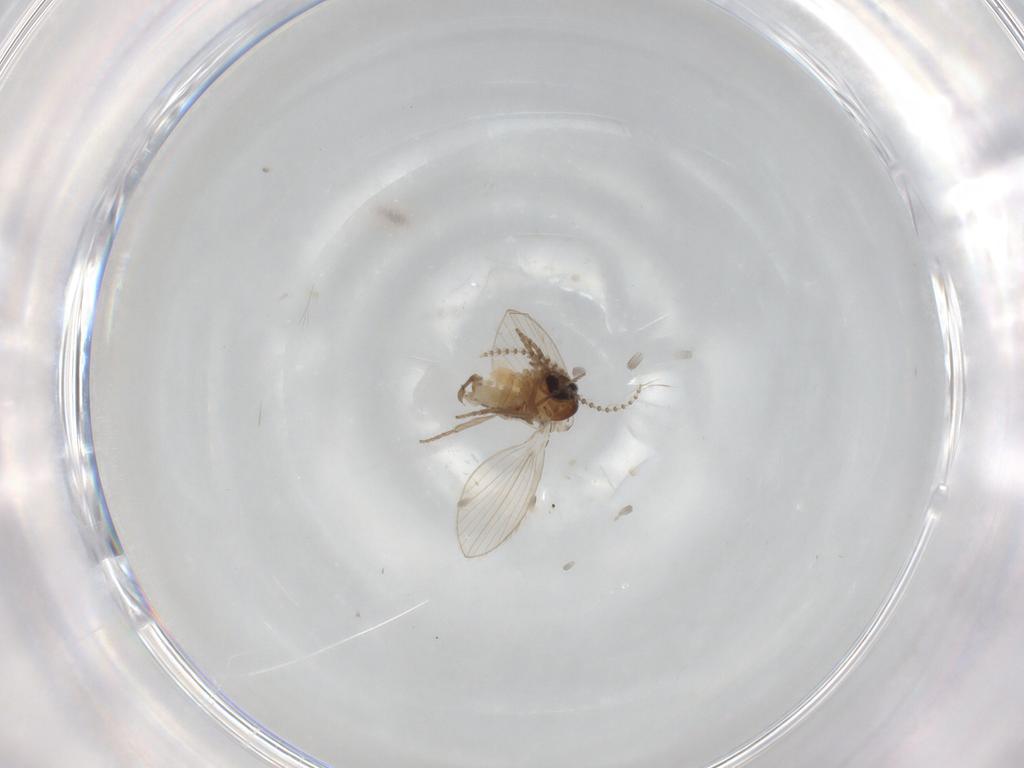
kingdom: Animalia
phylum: Arthropoda
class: Insecta
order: Diptera
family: Psychodidae
